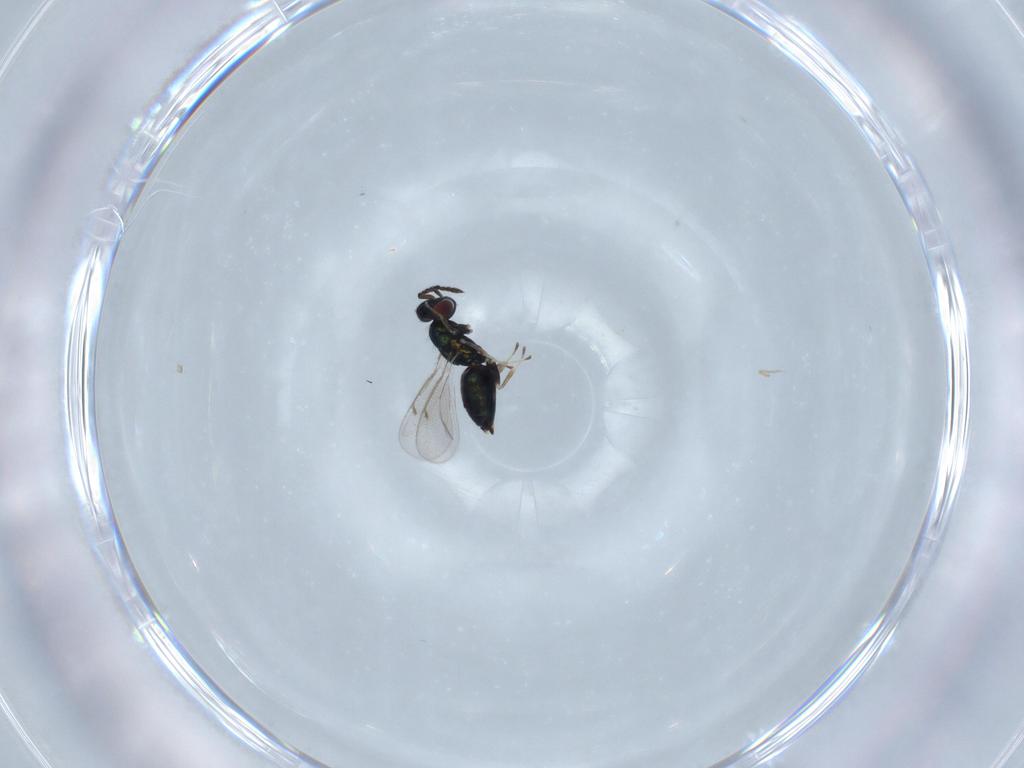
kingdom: Animalia
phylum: Arthropoda
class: Insecta
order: Hymenoptera
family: Eulophidae
